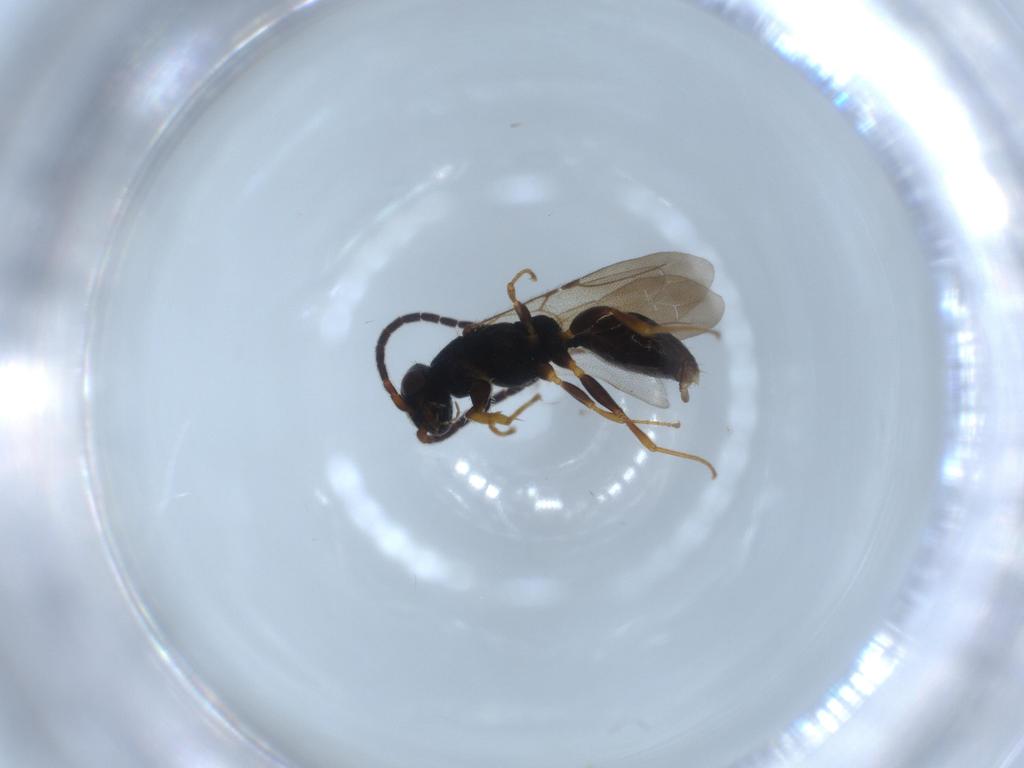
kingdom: Animalia
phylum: Arthropoda
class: Insecta
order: Hymenoptera
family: Bethylidae
